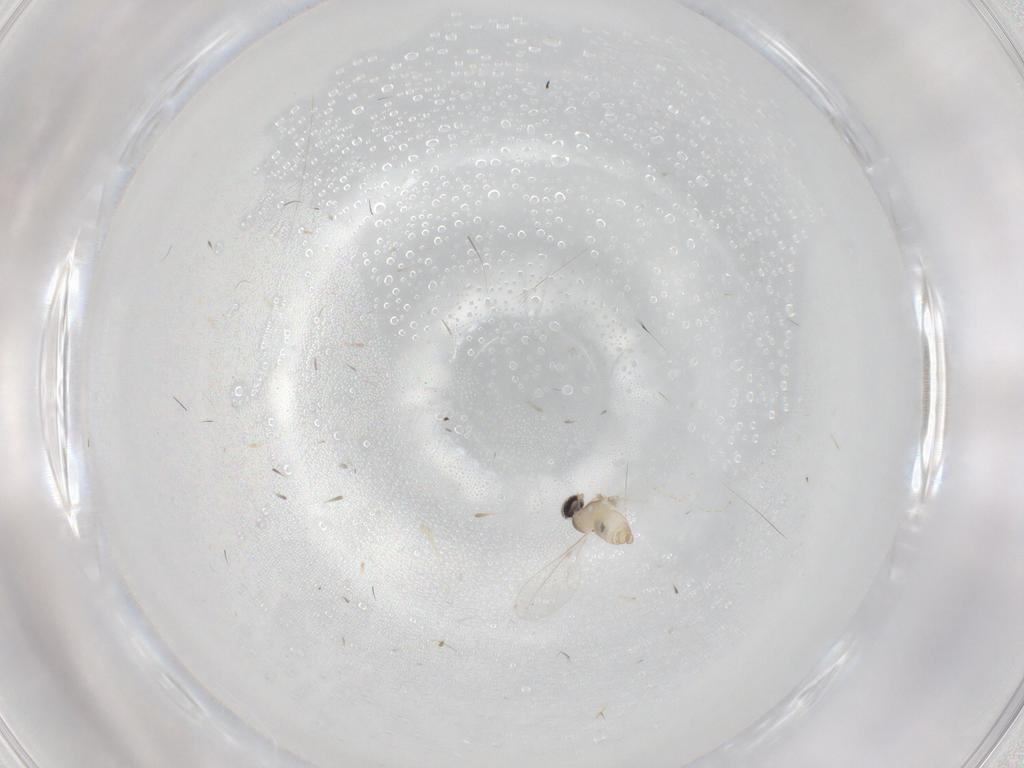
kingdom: Animalia
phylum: Arthropoda
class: Insecta
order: Diptera
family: Cecidomyiidae
